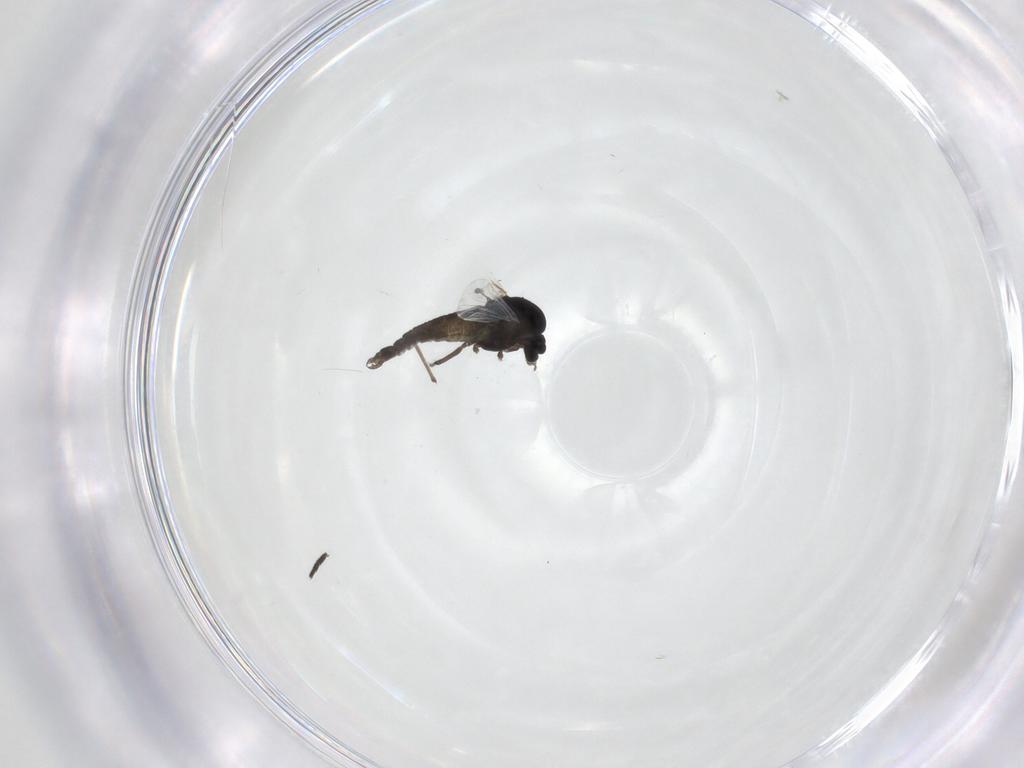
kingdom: Animalia
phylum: Arthropoda
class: Insecta
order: Diptera
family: Chironomidae
